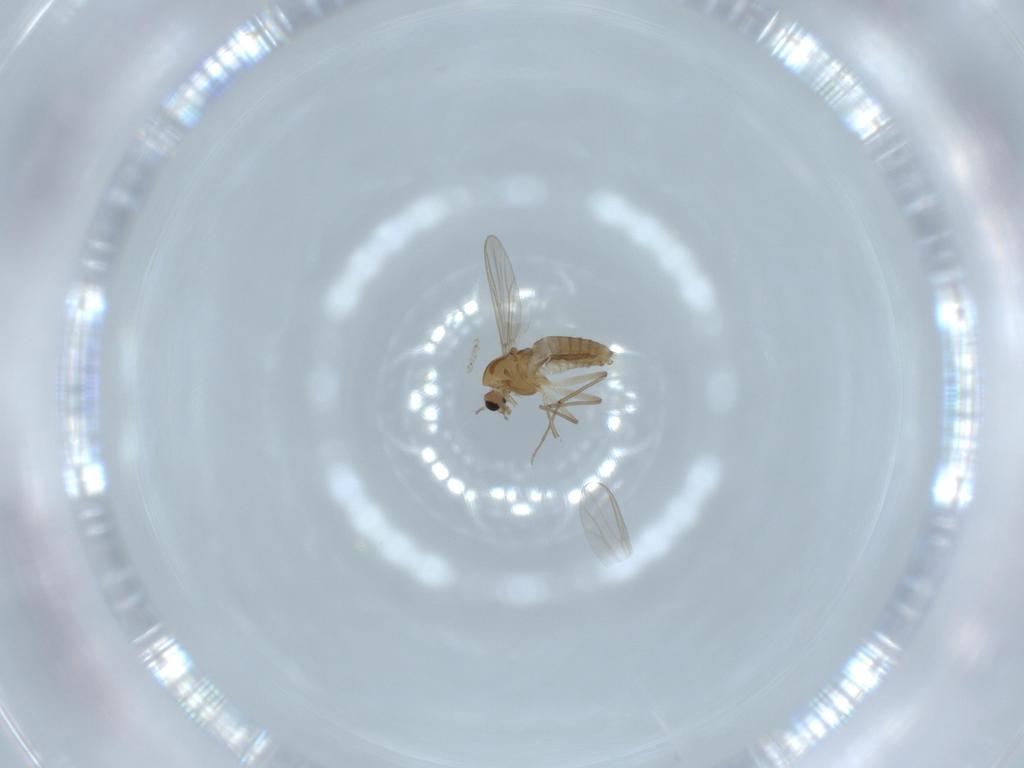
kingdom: Animalia
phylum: Arthropoda
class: Insecta
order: Diptera
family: Chironomidae
